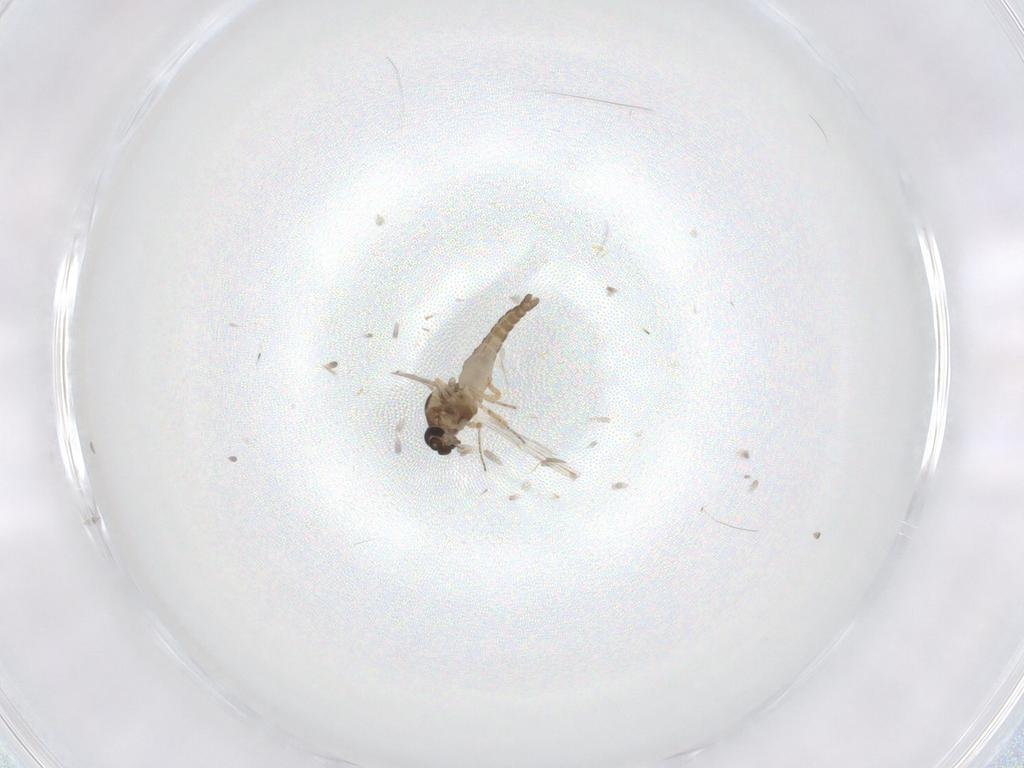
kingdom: Animalia
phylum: Arthropoda
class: Insecta
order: Diptera
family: Ceratopogonidae
